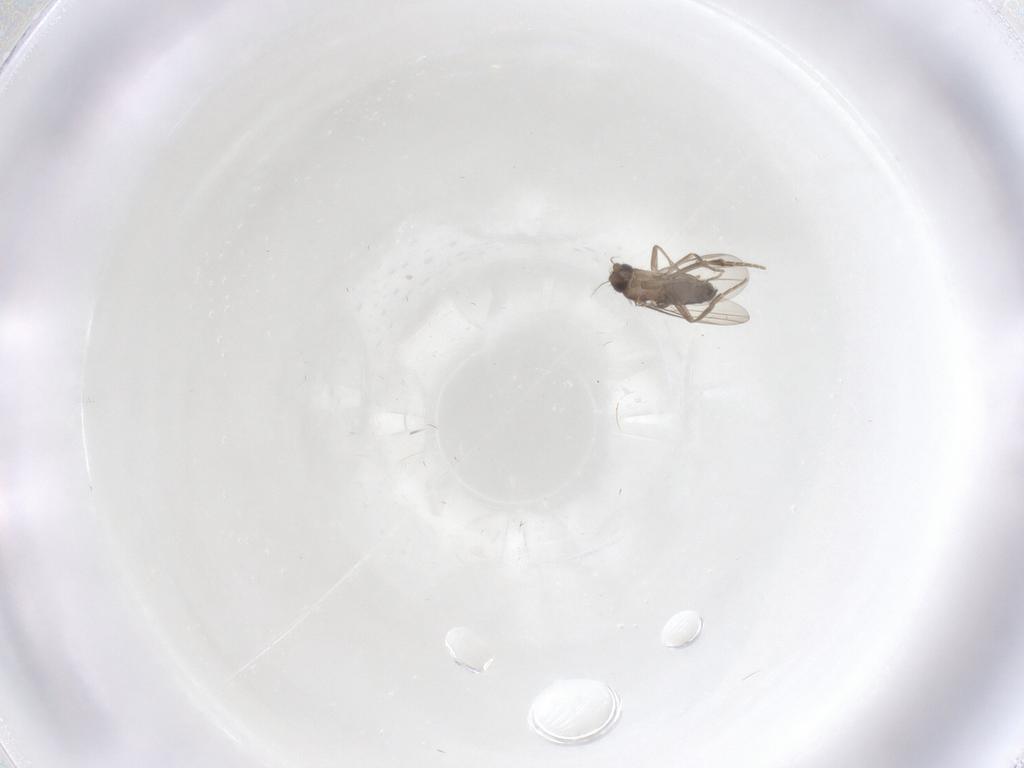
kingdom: Animalia
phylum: Arthropoda
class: Insecta
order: Diptera
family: Phoridae
